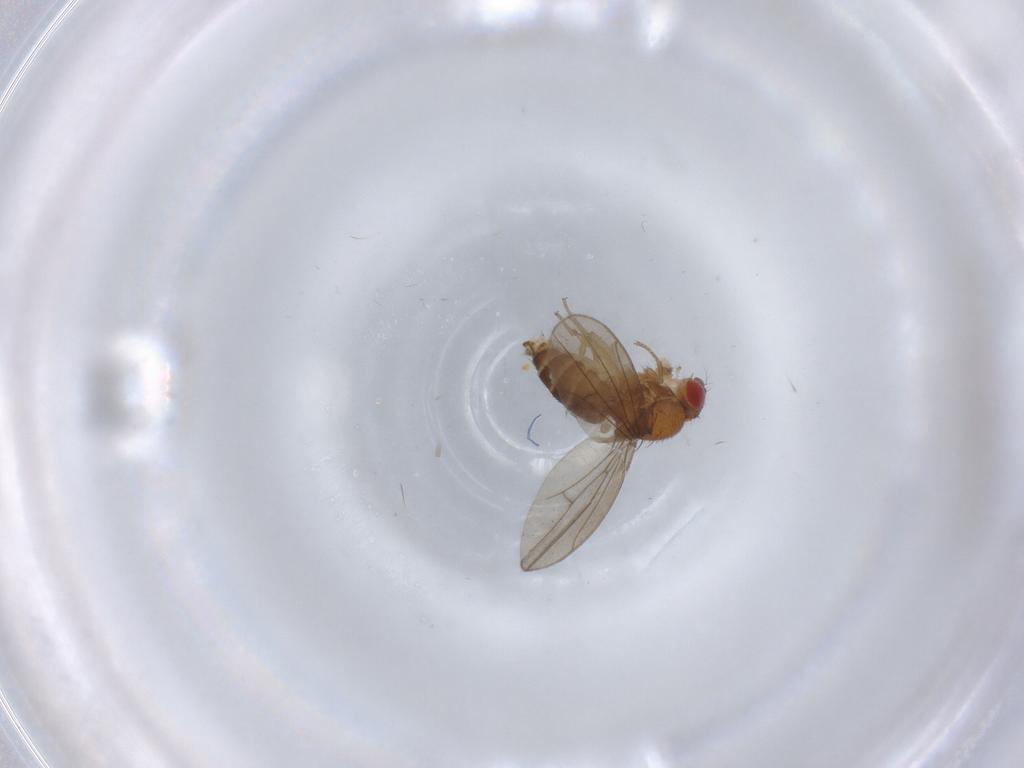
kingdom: Animalia
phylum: Arthropoda
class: Insecta
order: Diptera
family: Drosophilidae
